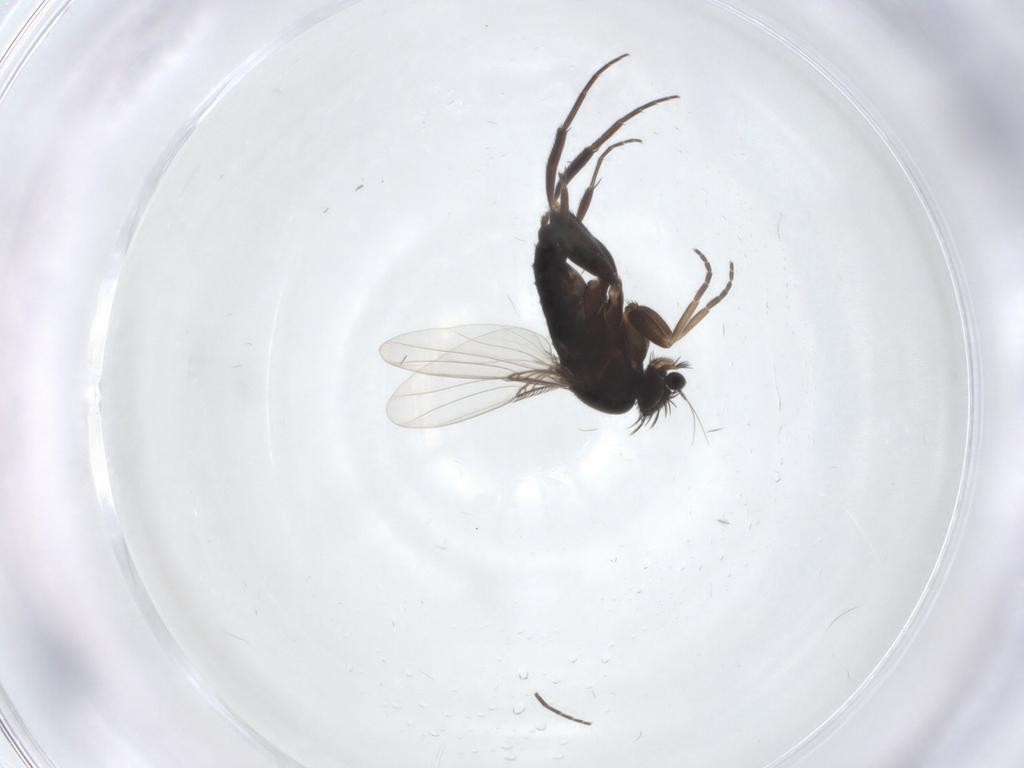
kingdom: Animalia
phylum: Arthropoda
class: Insecta
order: Diptera
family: Phoridae
